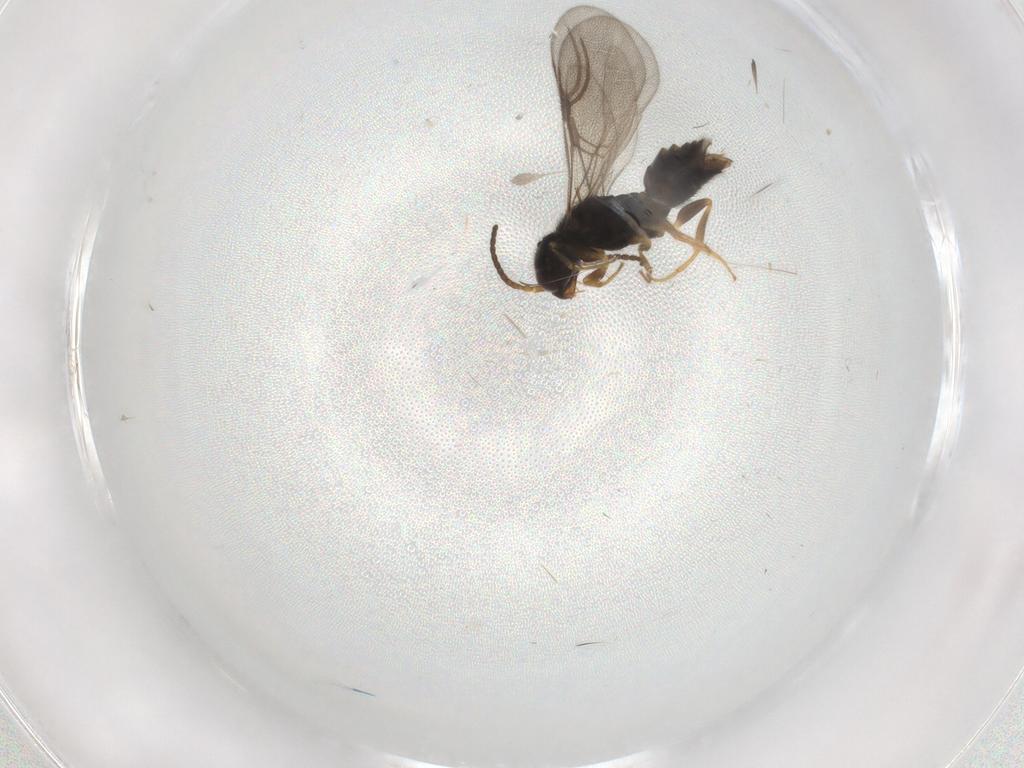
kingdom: Animalia
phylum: Arthropoda
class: Insecta
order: Hymenoptera
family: Bethylidae
